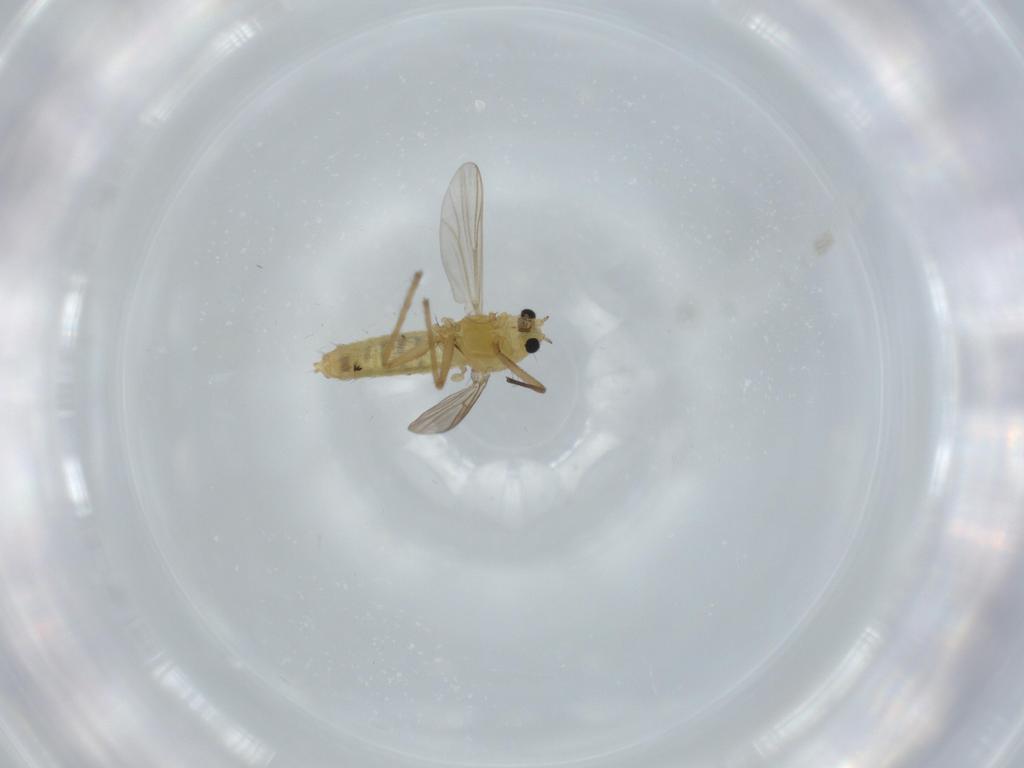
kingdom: Animalia
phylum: Arthropoda
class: Insecta
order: Diptera
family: Chironomidae
